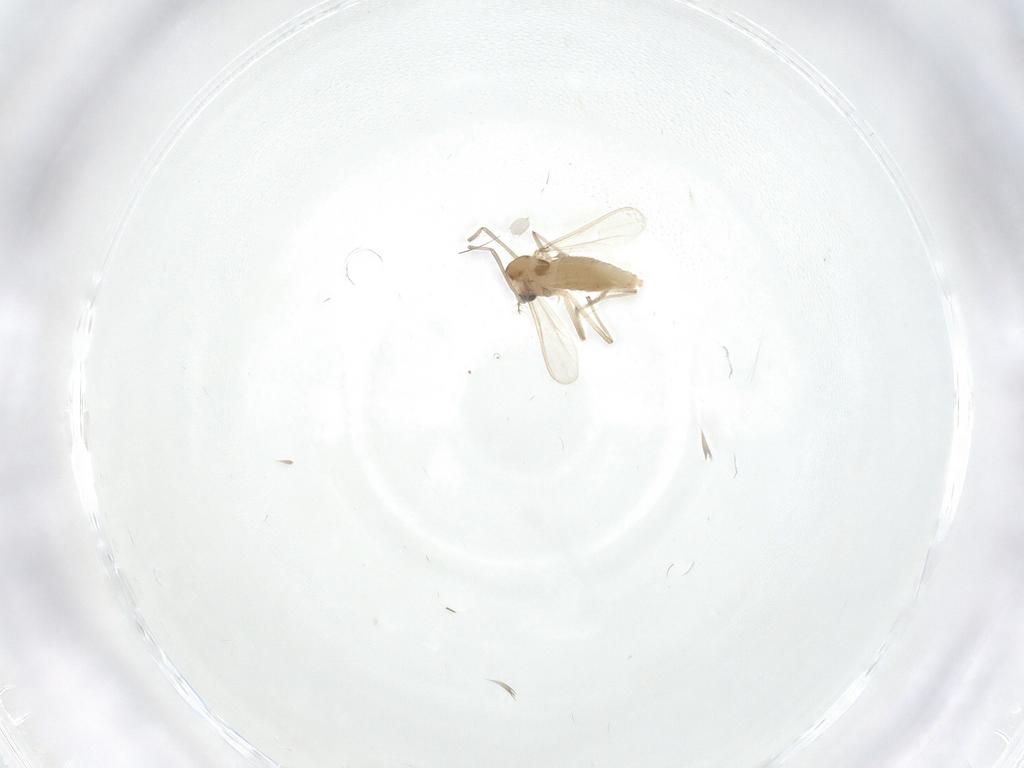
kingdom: Animalia
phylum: Arthropoda
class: Insecta
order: Diptera
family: Chironomidae
